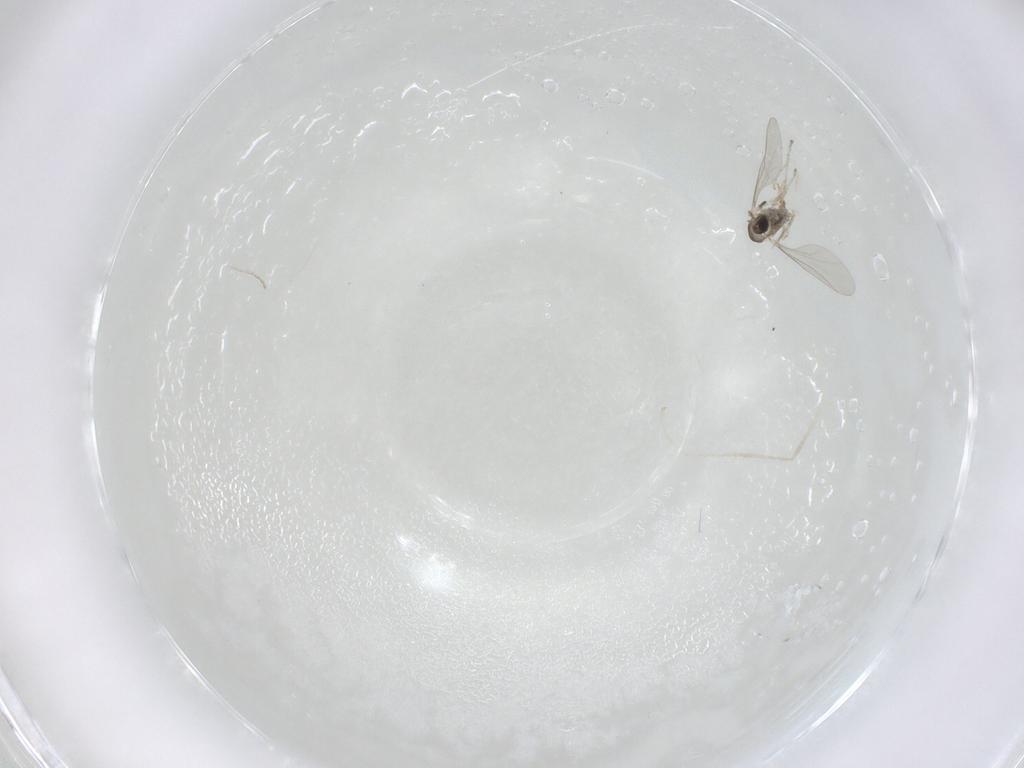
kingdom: Animalia
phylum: Arthropoda
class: Insecta
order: Diptera
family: Cecidomyiidae
